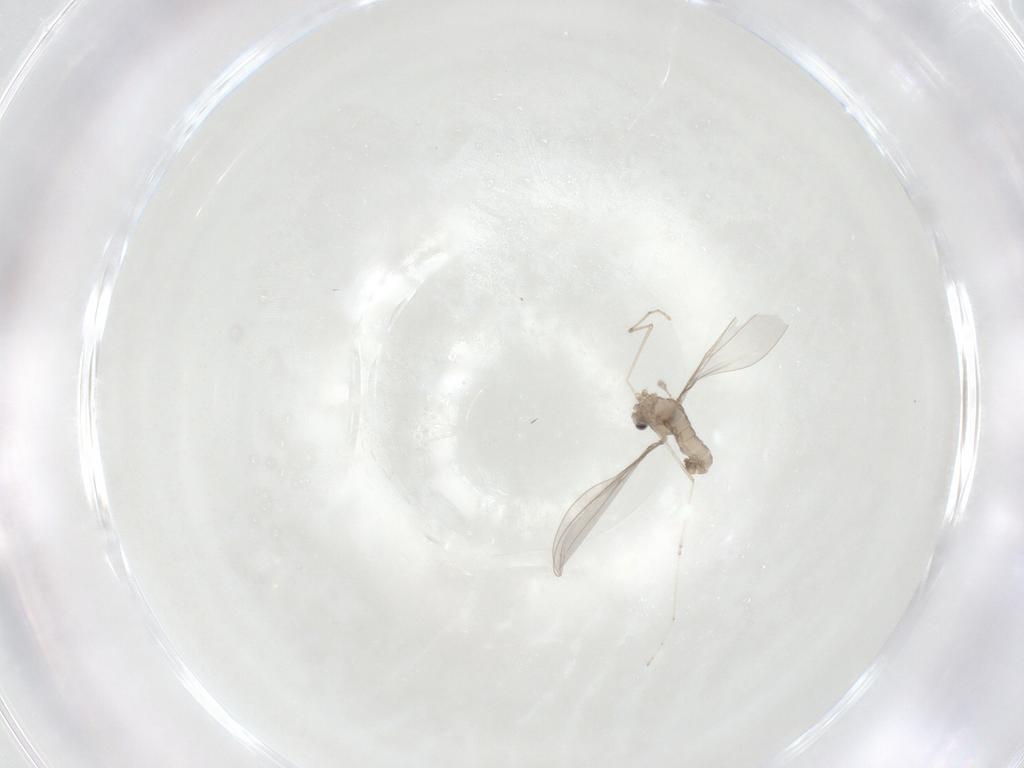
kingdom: Animalia
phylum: Arthropoda
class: Insecta
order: Diptera
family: Cecidomyiidae
